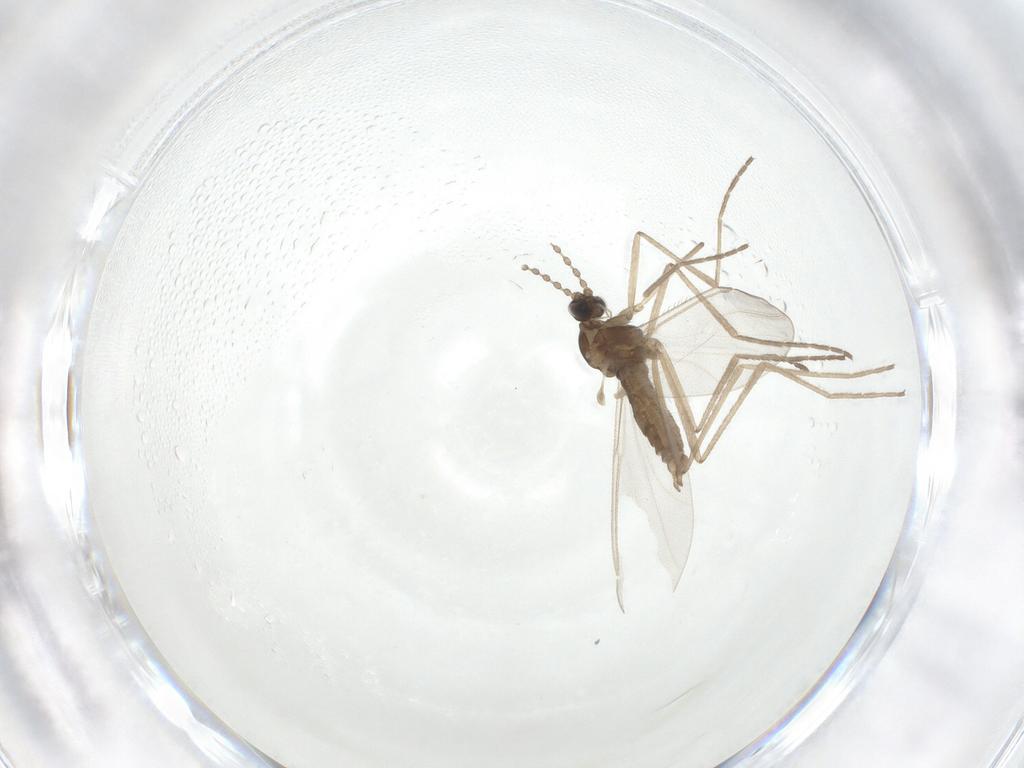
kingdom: Animalia
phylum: Arthropoda
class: Insecta
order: Diptera
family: Cecidomyiidae
